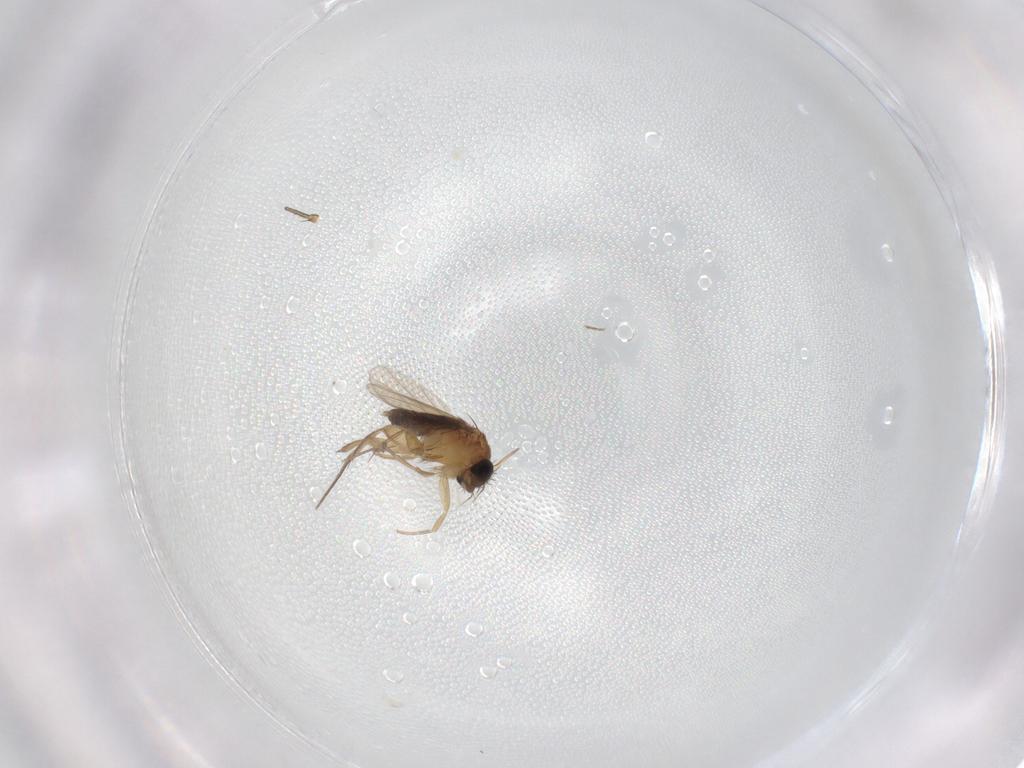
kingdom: Animalia
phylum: Arthropoda
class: Insecta
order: Diptera
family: Phoridae
